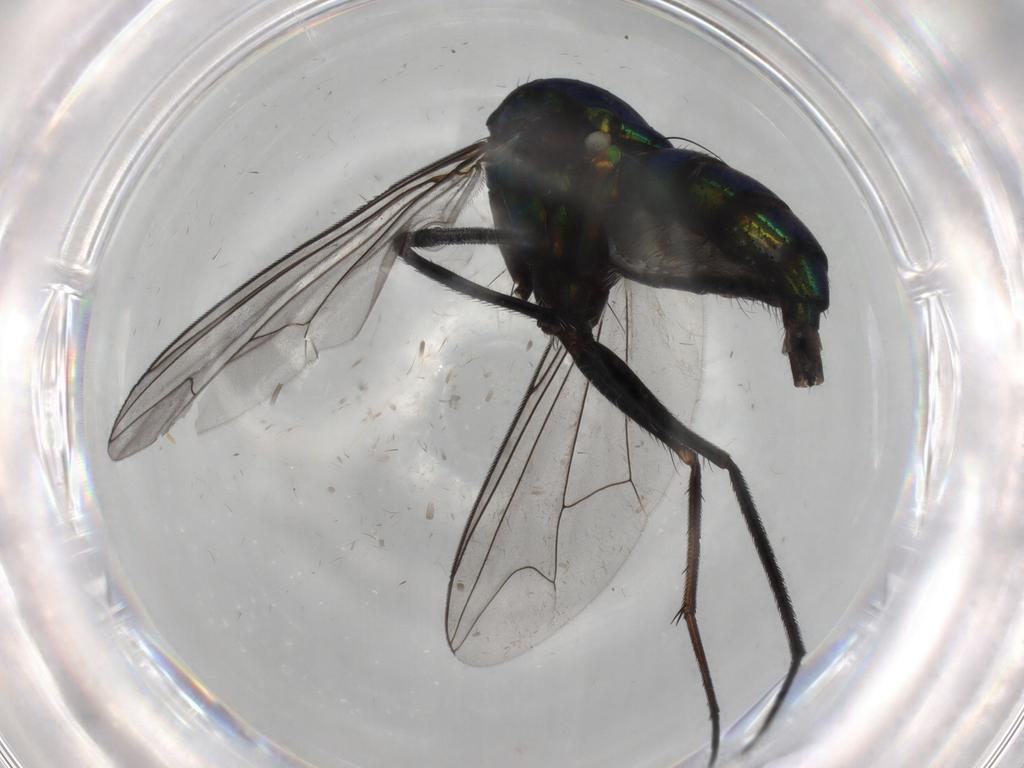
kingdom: Animalia
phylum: Arthropoda
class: Insecta
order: Diptera
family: Dolichopodidae
